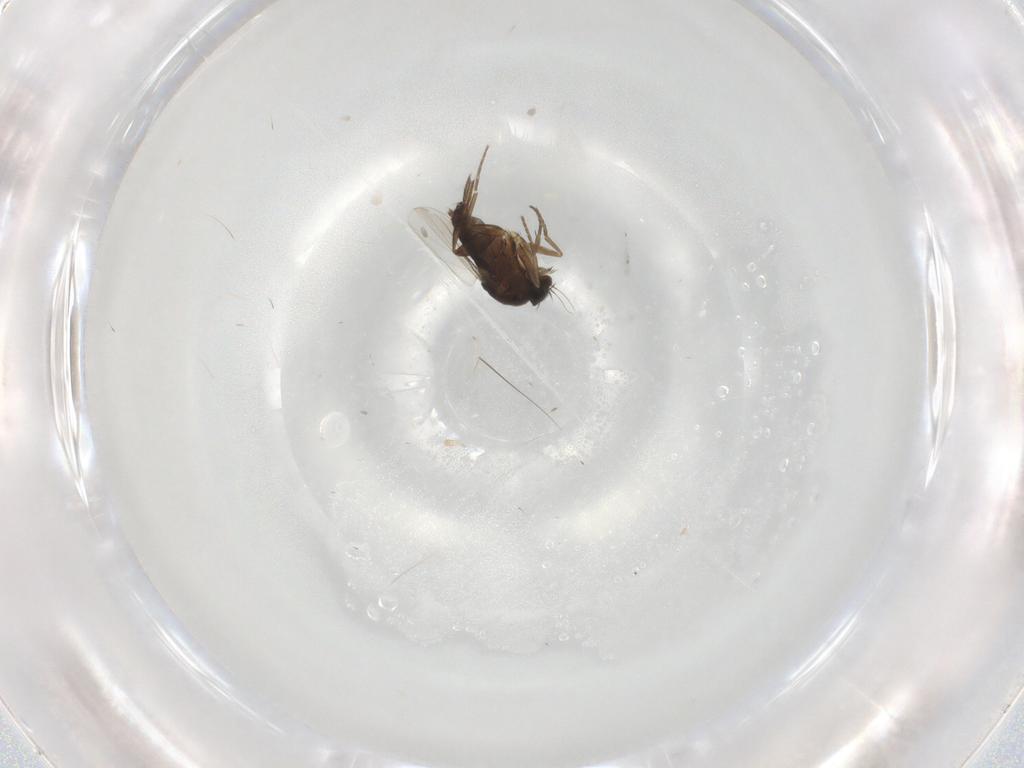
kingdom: Animalia
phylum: Arthropoda
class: Insecta
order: Diptera
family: Phoridae
